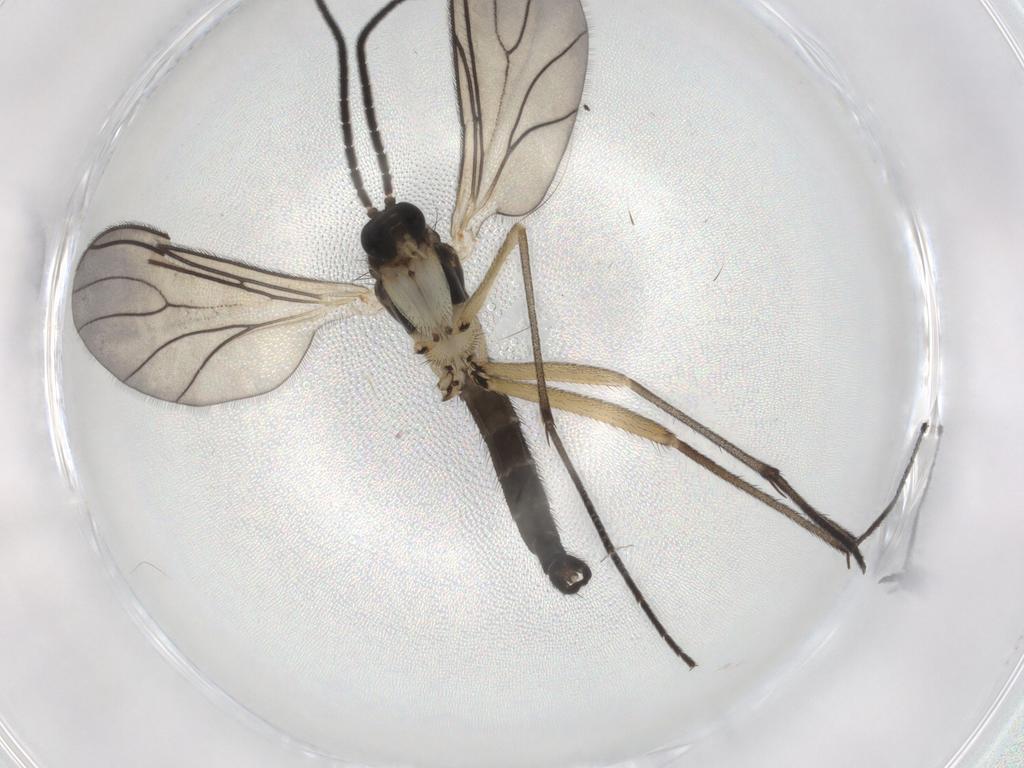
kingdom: Animalia
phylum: Arthropoda
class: Insecta
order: Diptera
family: Sciaridae
